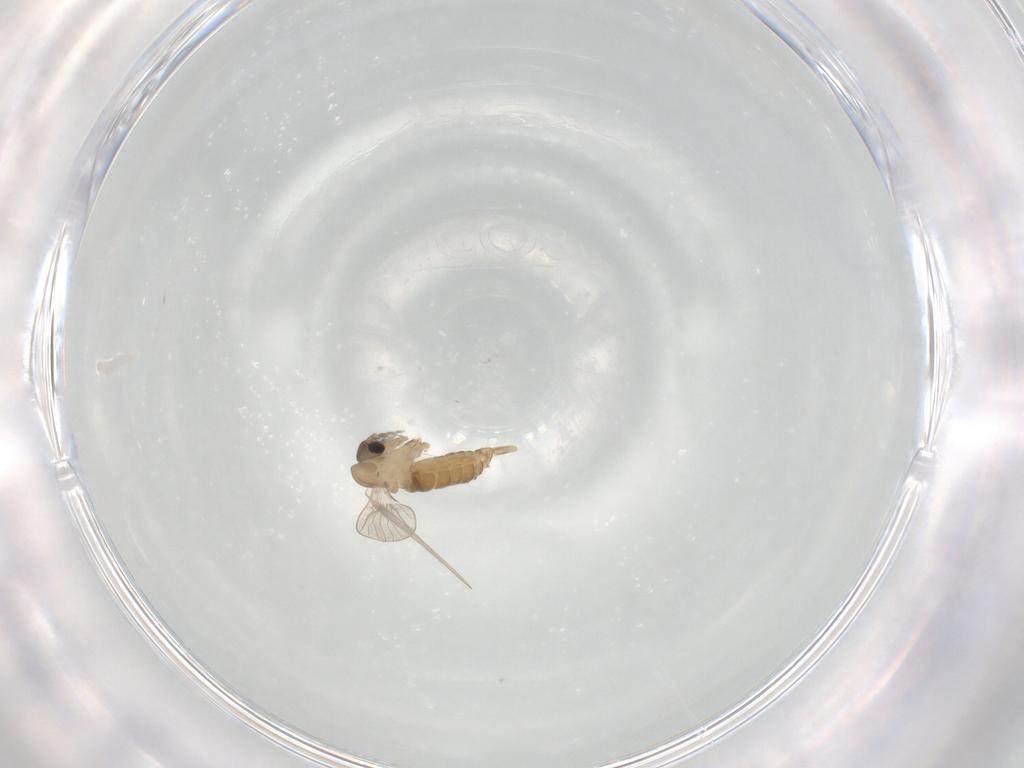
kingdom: Animalia
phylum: Arthropoda
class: Insecta
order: Diptera
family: Psychodidae
